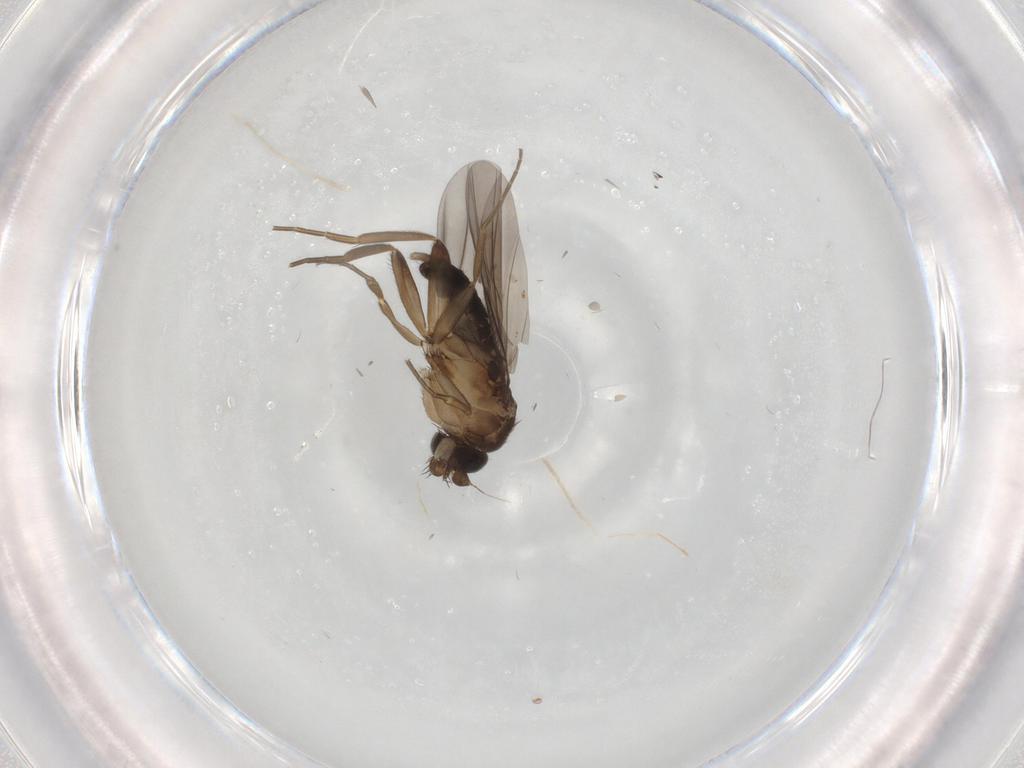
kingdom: Animalia
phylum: Arthropoda
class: Insecta
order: Diptera
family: Phoridae
